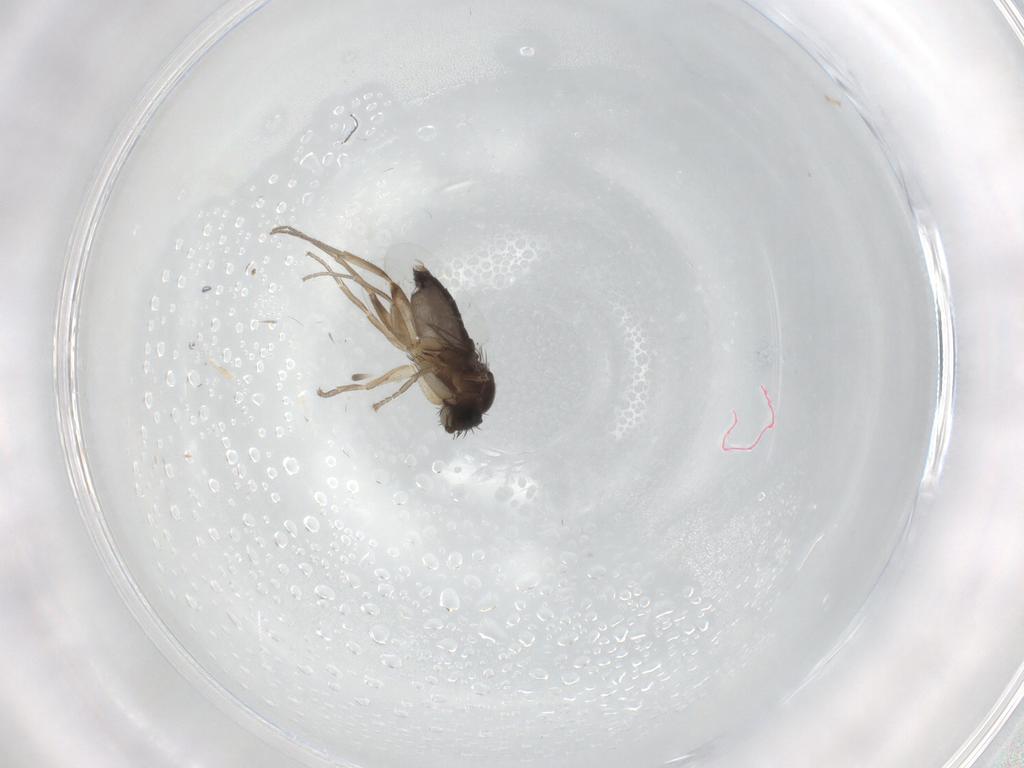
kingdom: Animalia
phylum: Arthropoda
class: Insecta
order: Diptera
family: Phoridae
